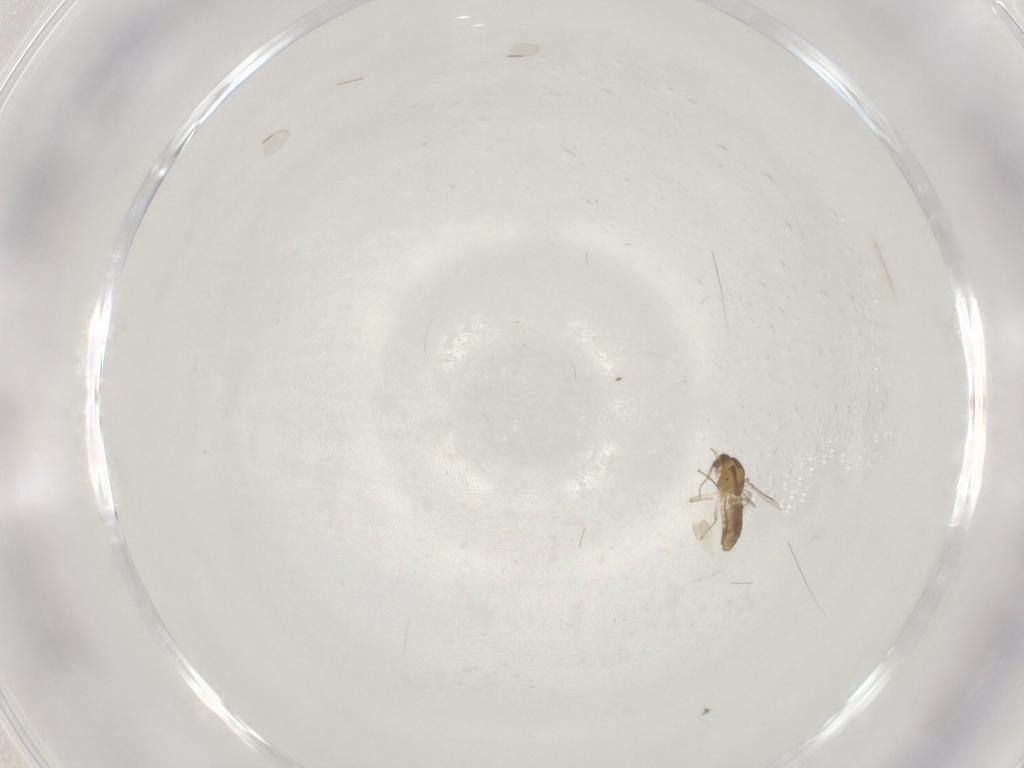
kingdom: Animalia
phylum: Arthropoda
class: Insecta
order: Diptera
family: Chironomidae
